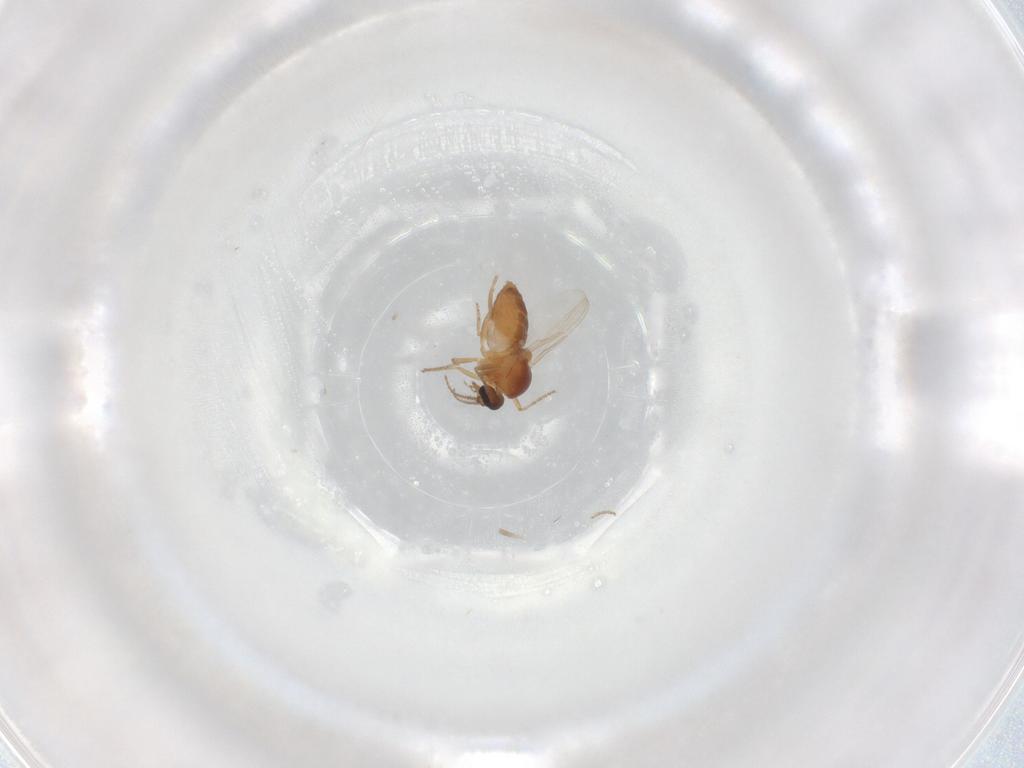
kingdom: Animalia
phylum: Arthropoda
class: Insecta
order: Diptera
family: Ceratopogonidae
